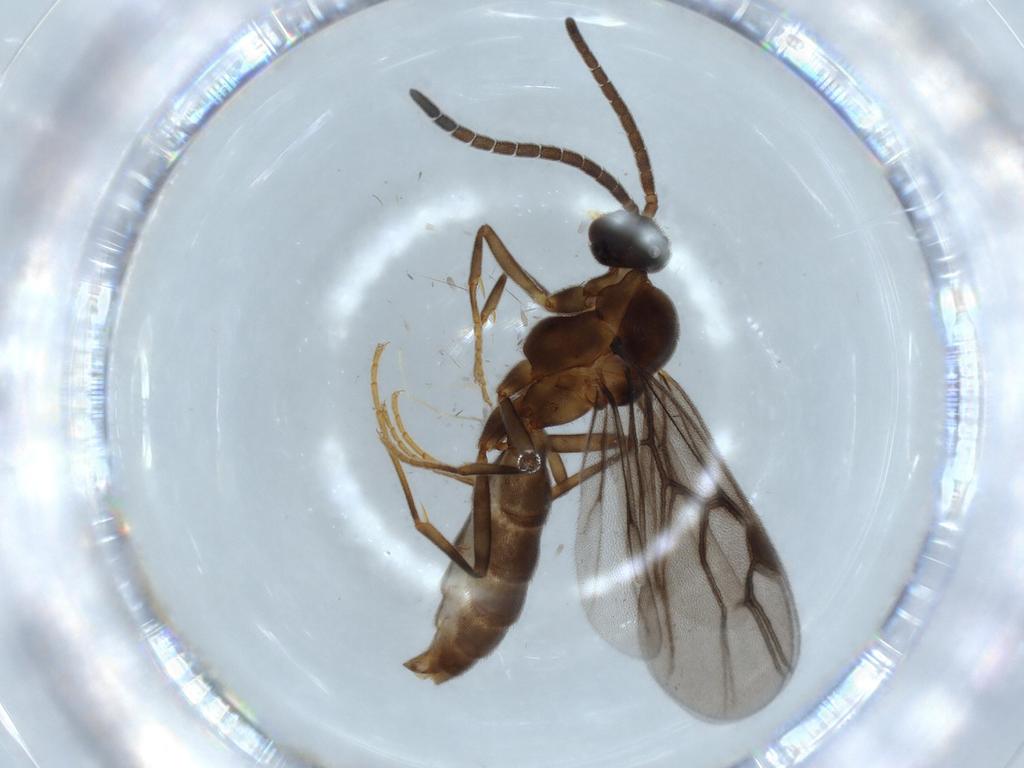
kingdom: Animalia
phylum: Arthropoda
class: Insecta
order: Hymenoptera
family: Formicidae
